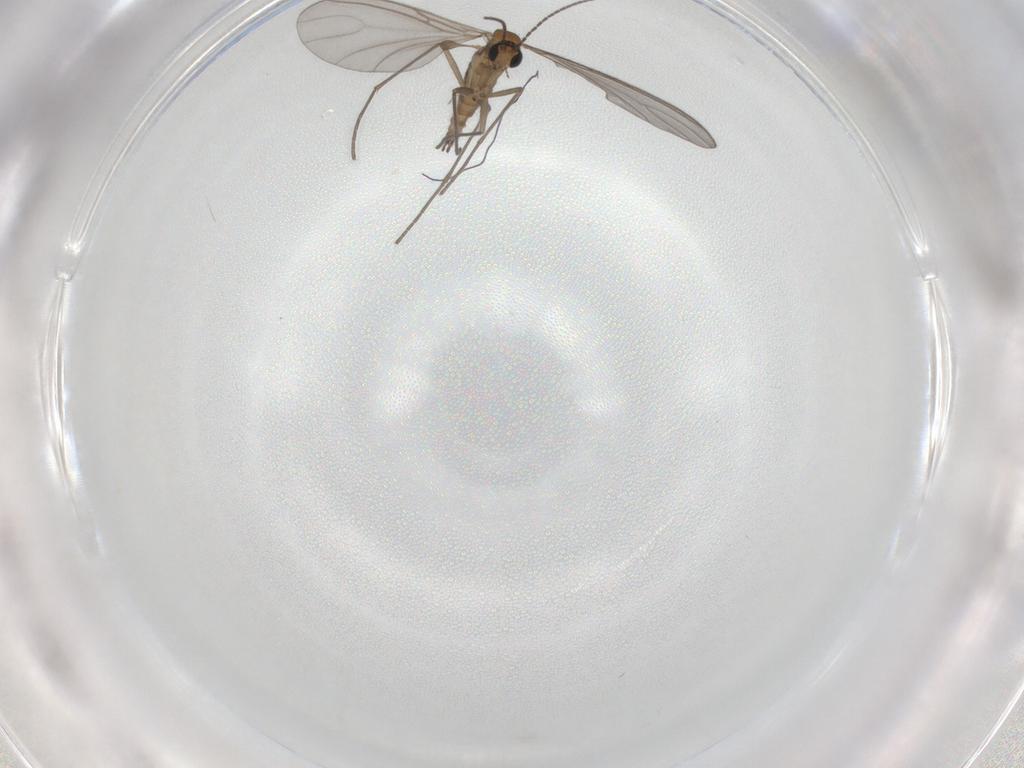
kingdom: Animalia
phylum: Arthropoda
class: Insecta
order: Diptera
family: Sciaridae
